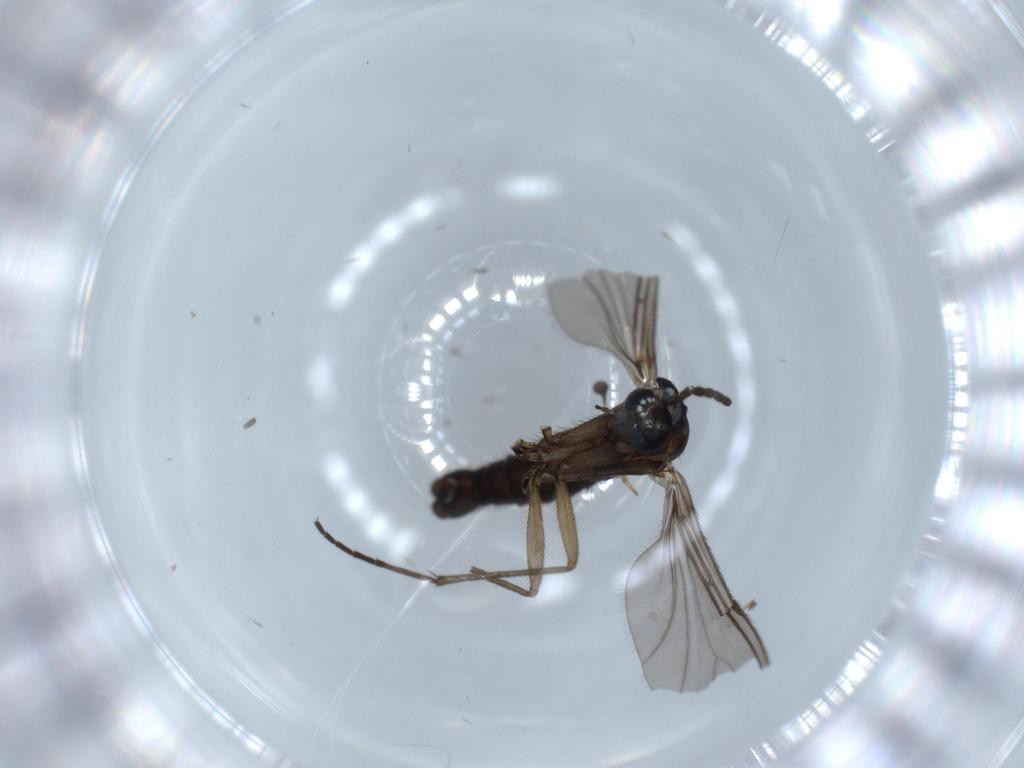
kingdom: Animalia
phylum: Arthropoda
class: Insecta
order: Diptera
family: Sciaridae
